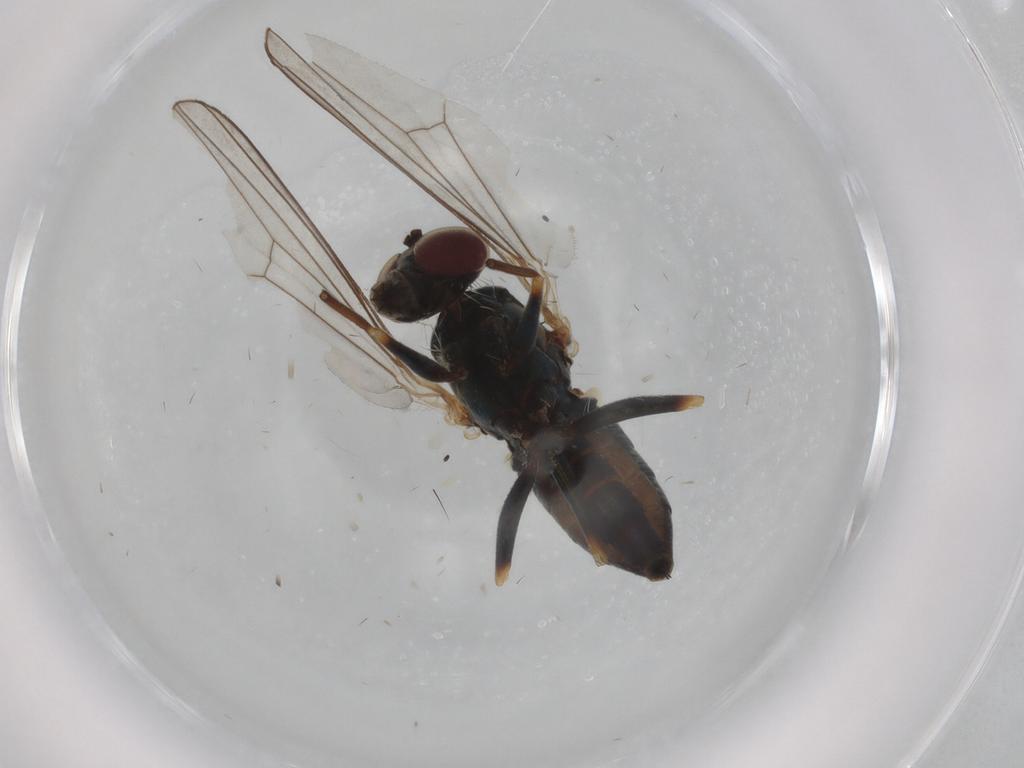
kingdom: Animalia
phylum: Arthropoda
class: Insecta
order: Diptera
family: Dolichopodidae
